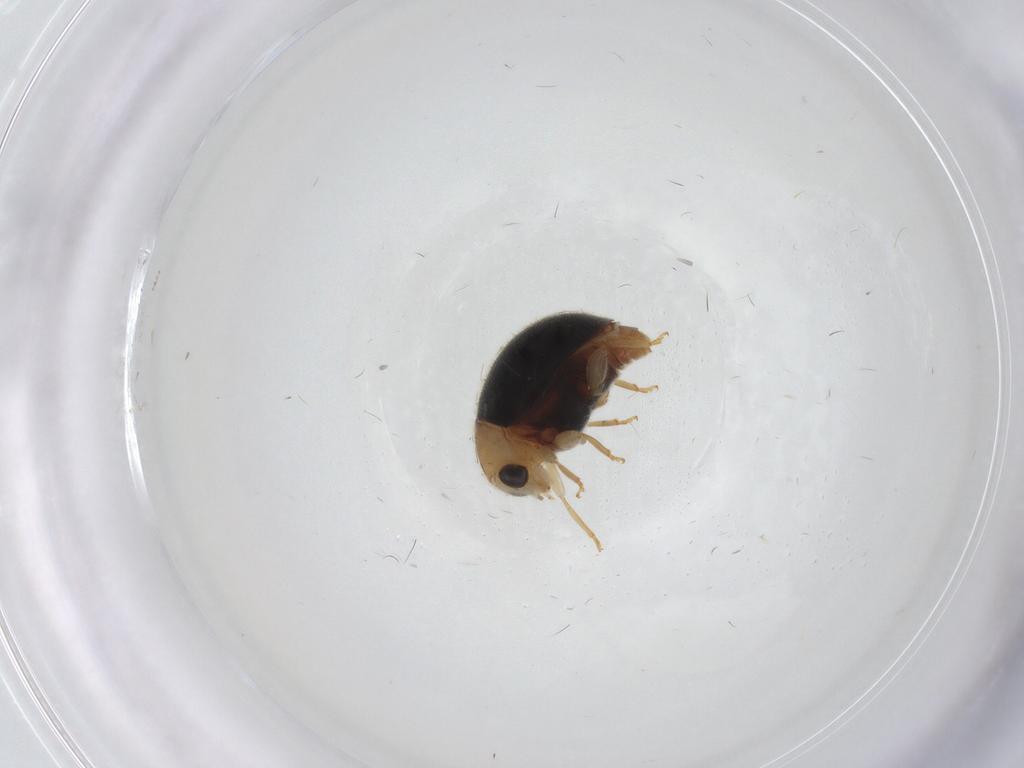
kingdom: Animalia
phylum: Arthropoda
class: Insecta
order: Coleoptera
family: Coccinellidae
